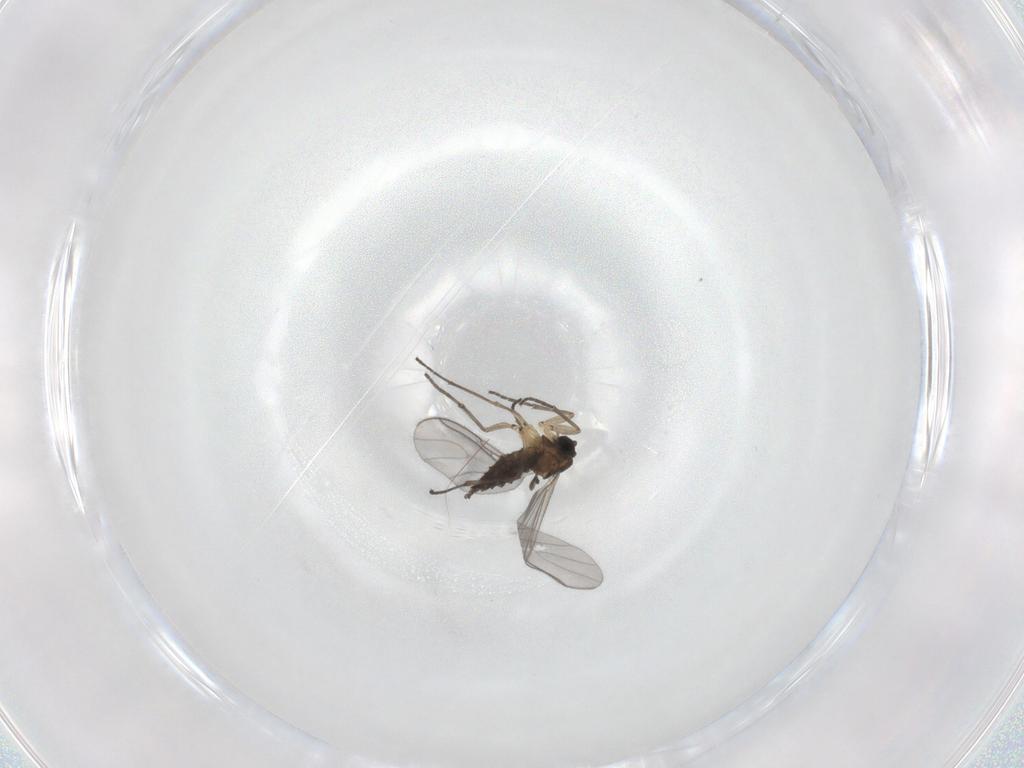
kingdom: Animalia
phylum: Arthropoda
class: Insecta
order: Diptera
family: Sciaridae
